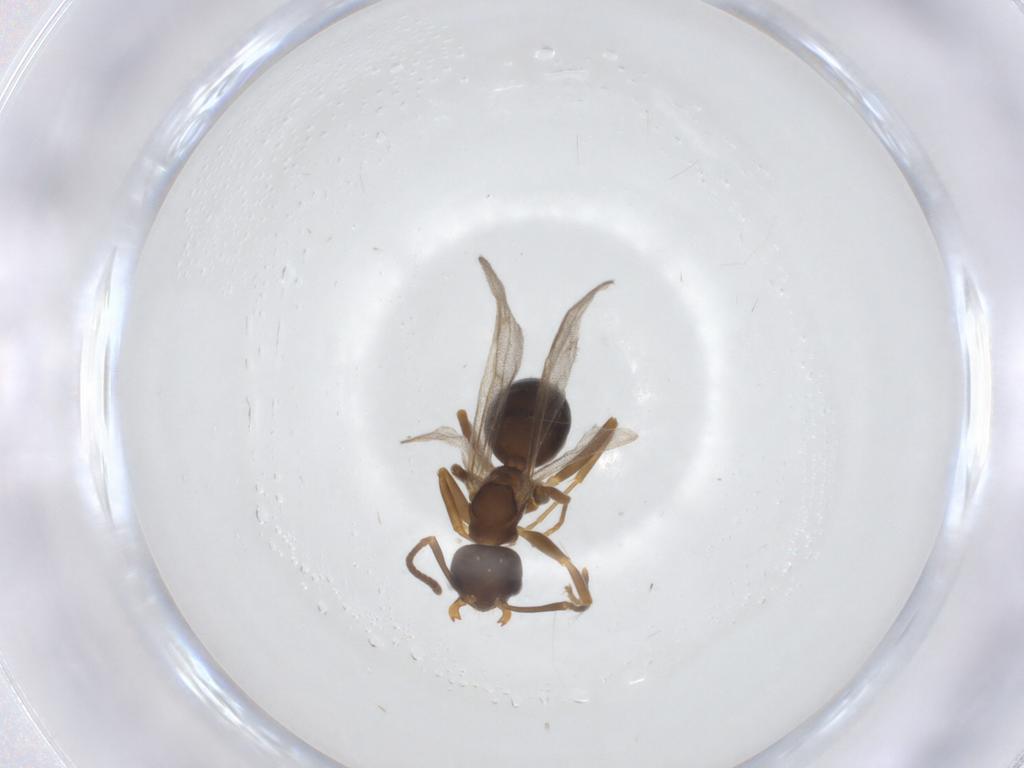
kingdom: Animalia
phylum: Arthropoda
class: Insecta
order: Hymenoptera
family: Formicidae
